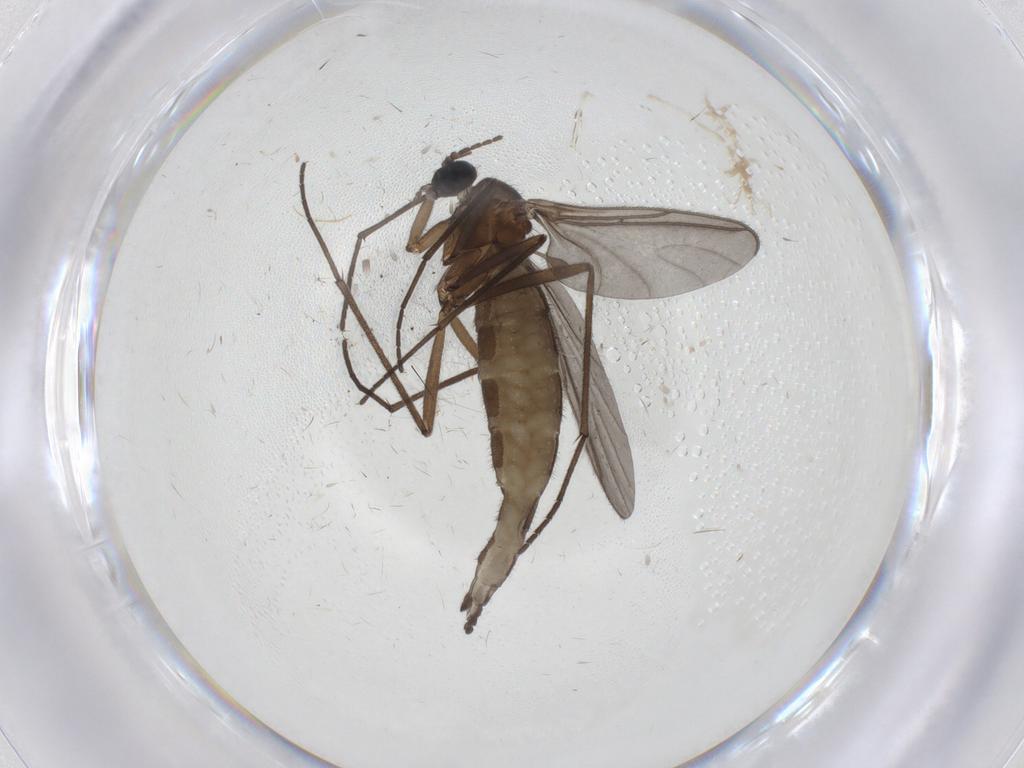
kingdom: Animalia
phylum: Arthropoda
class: Insecta
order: Diptera
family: Sciaridae
